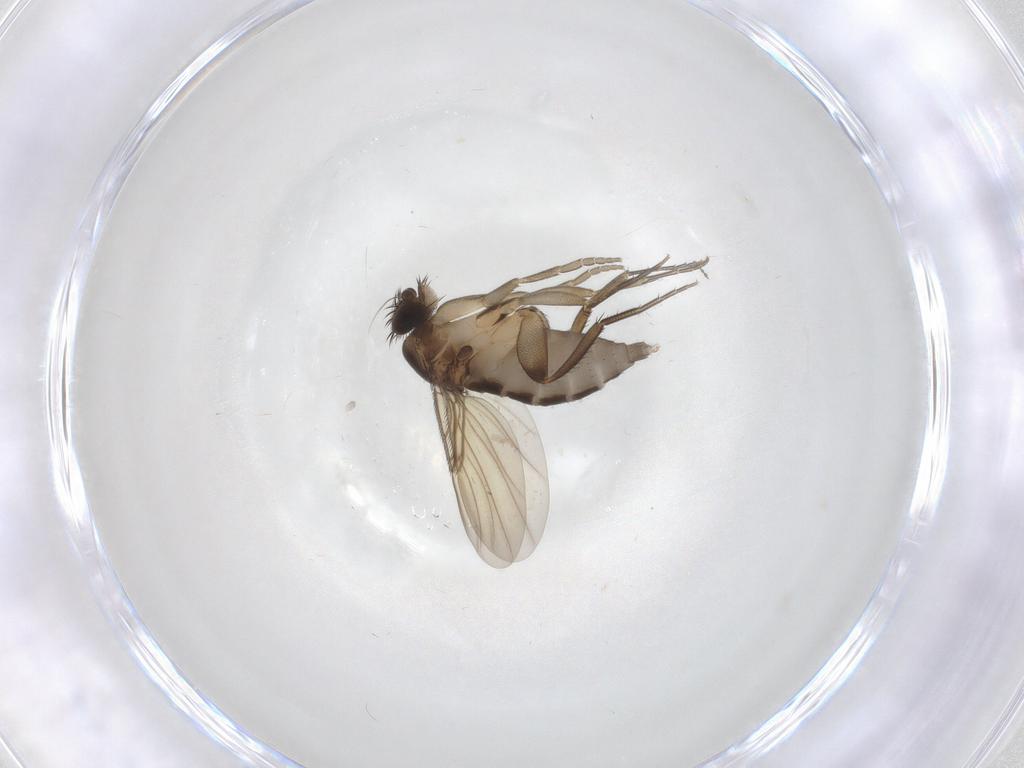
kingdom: Animalia
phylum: Arthropoda
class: Insecta
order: Diptera
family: Phoridae
